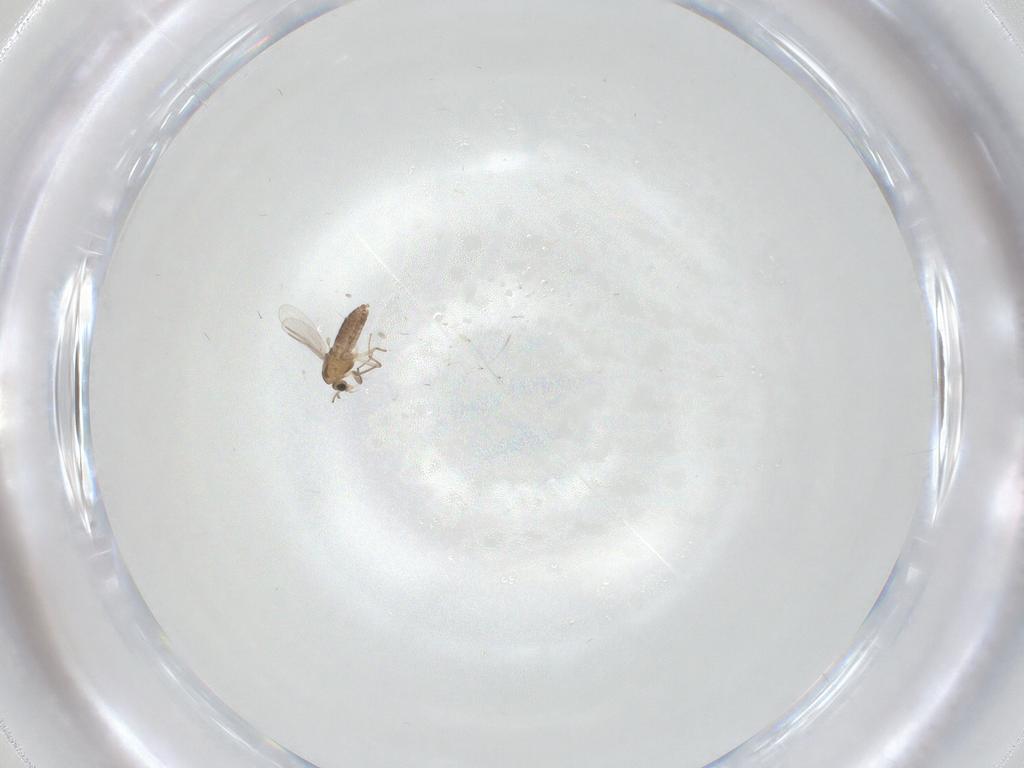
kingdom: Animalia
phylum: Arthropoda
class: Insecta
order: Diptera
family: Chironomidae
